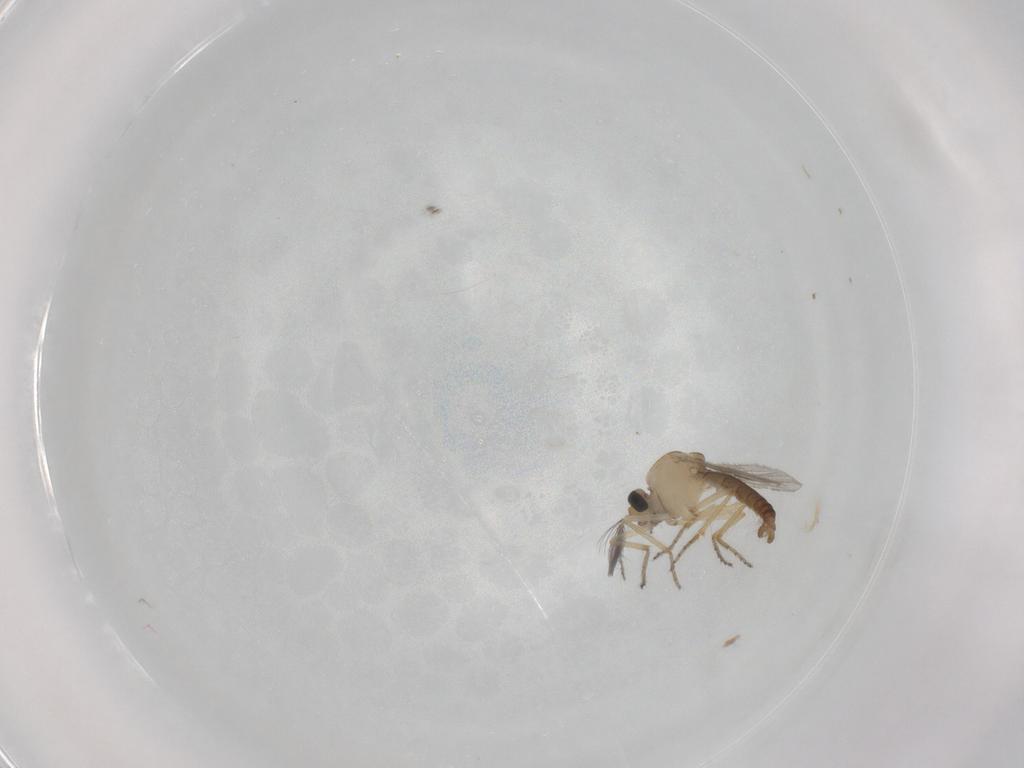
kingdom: Animalia
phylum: Arthropoda
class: Insecta
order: Diptera
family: Ceratopogonidae
